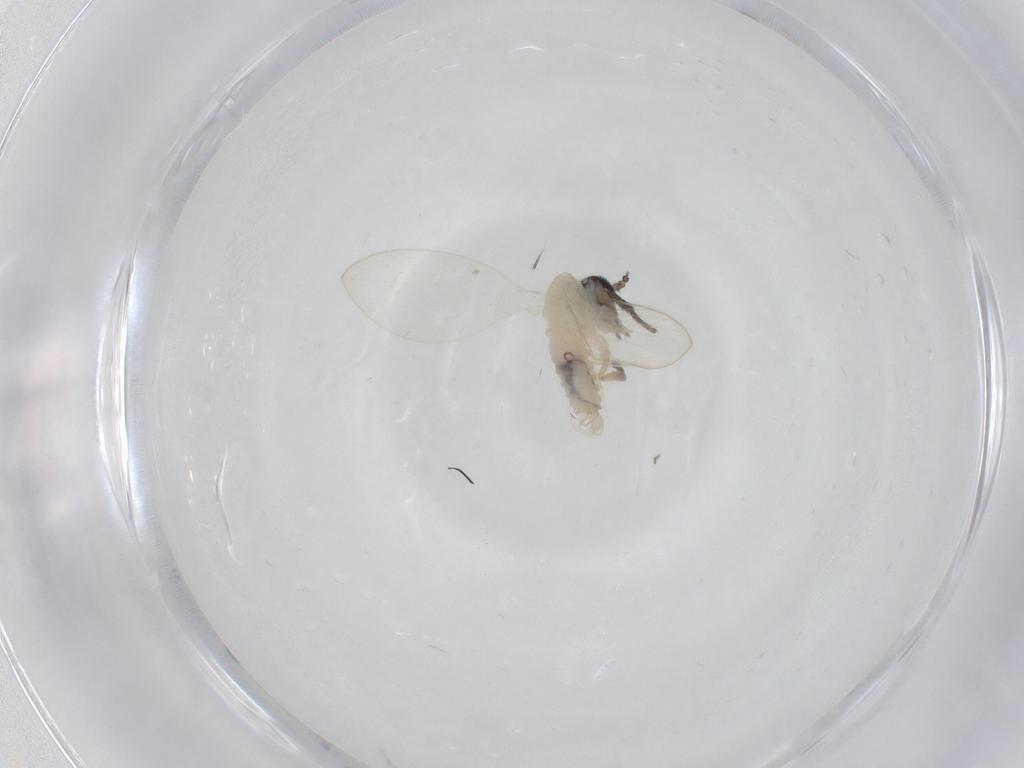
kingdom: Animalia
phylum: Arthropoda
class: Insecta
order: Diptera
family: Psychodidae
